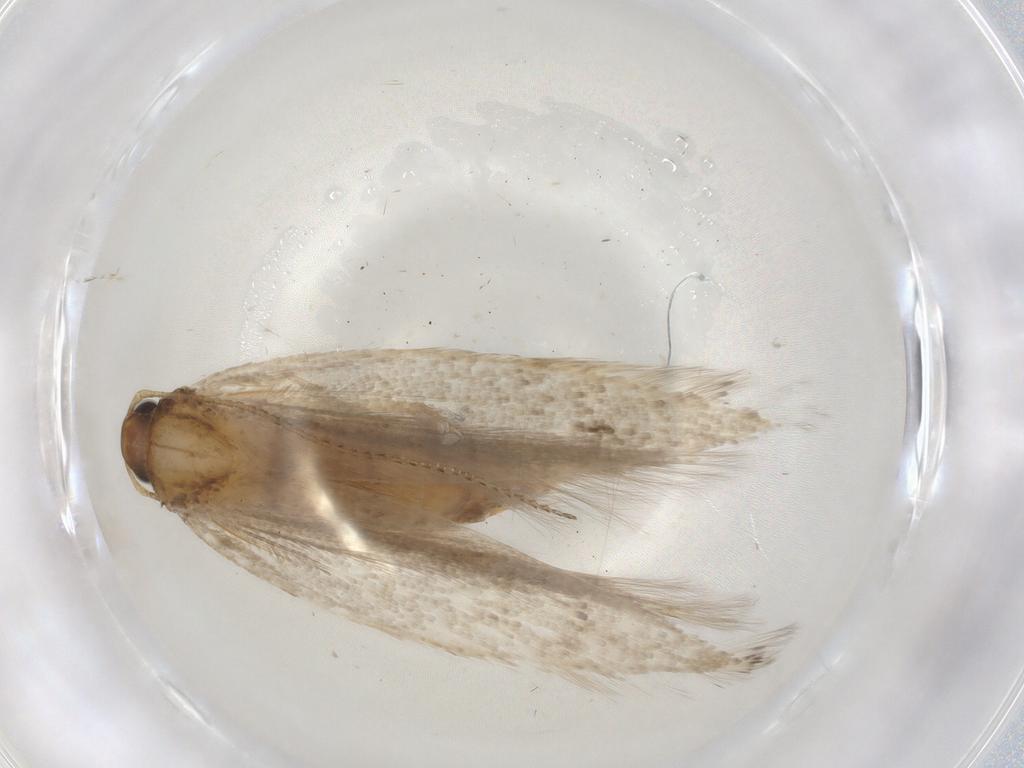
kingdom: Animalia
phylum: Arthropoda
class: Insecta
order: Lepidoptera
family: Gelechiidae
